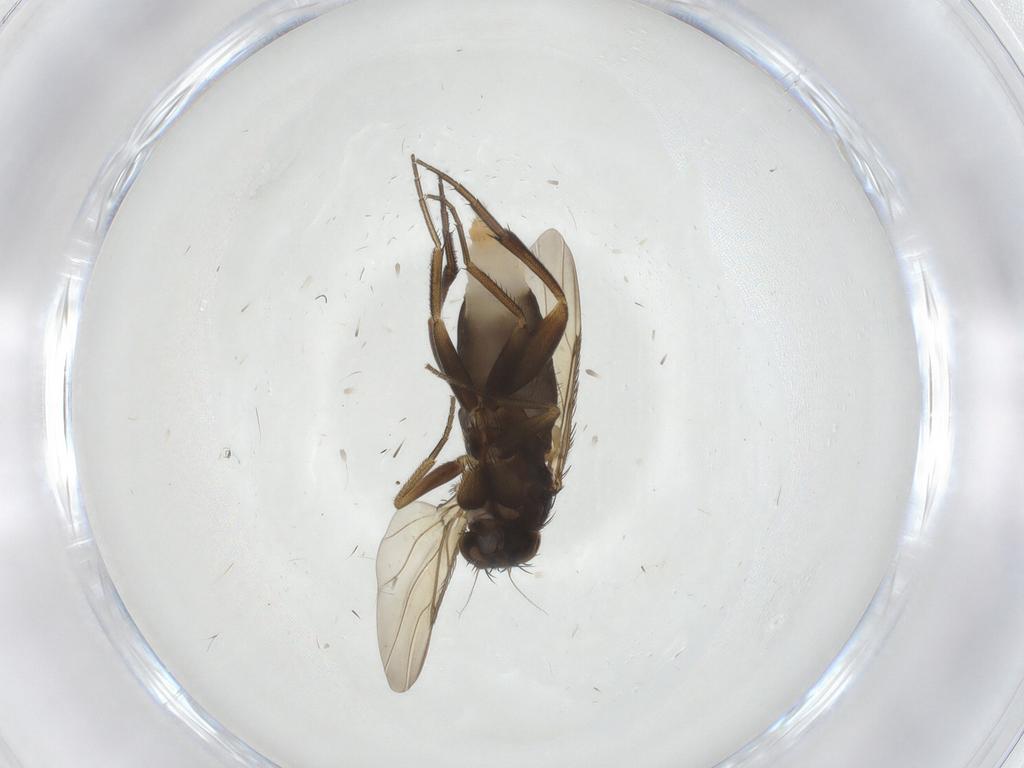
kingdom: Animalia
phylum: Arthropoda
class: Insecta
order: Diptera
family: Phoridae
